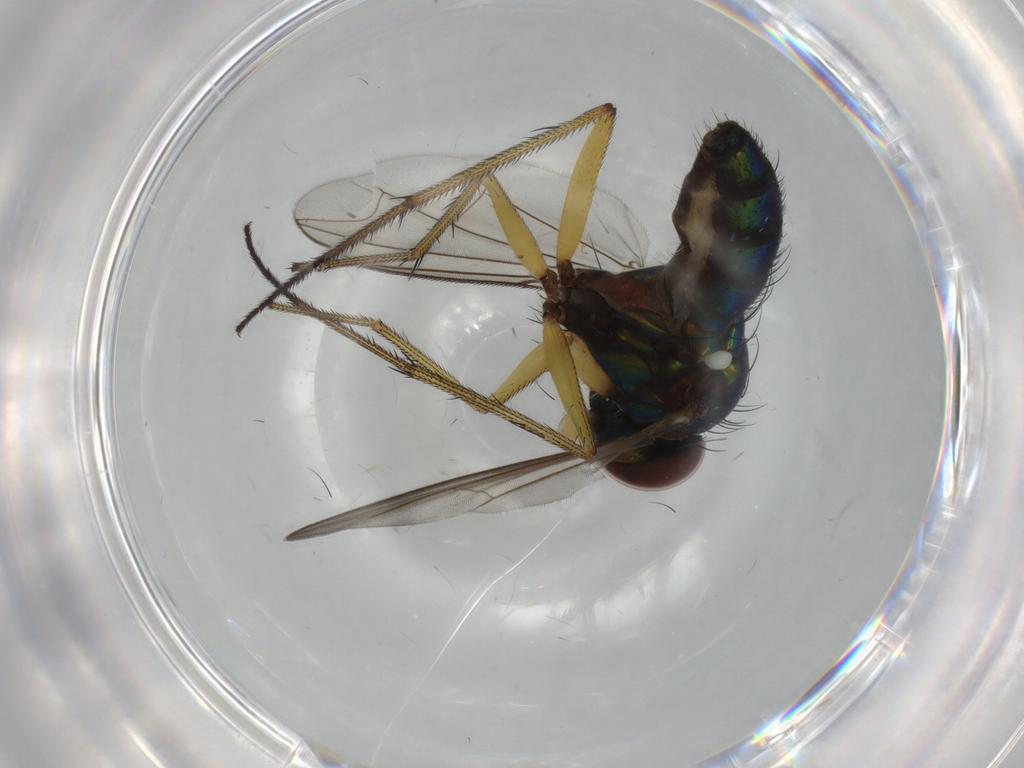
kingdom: Animalia
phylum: Arthropoda
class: Insecta
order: Diptera
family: Dolichopodidae
